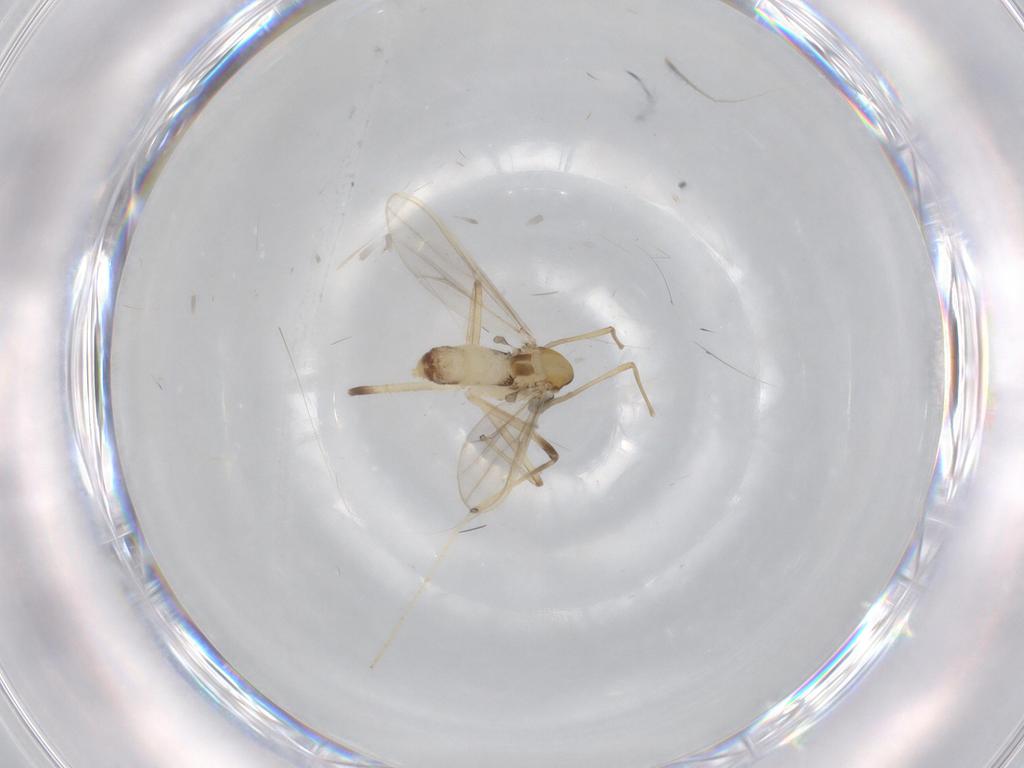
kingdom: Animalia
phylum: Arthropoda
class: Insecta
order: Diptera
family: Chironomidae
